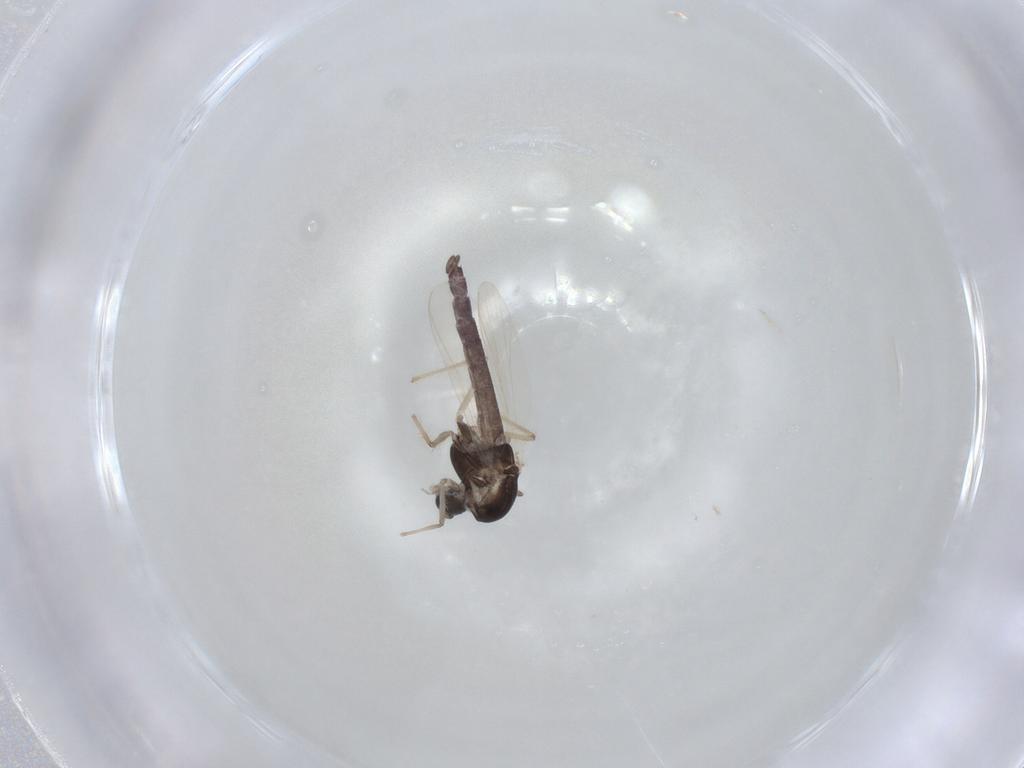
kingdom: Animalia
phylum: Arthropoda
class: Insecta
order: Diptera
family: Chironomidae
